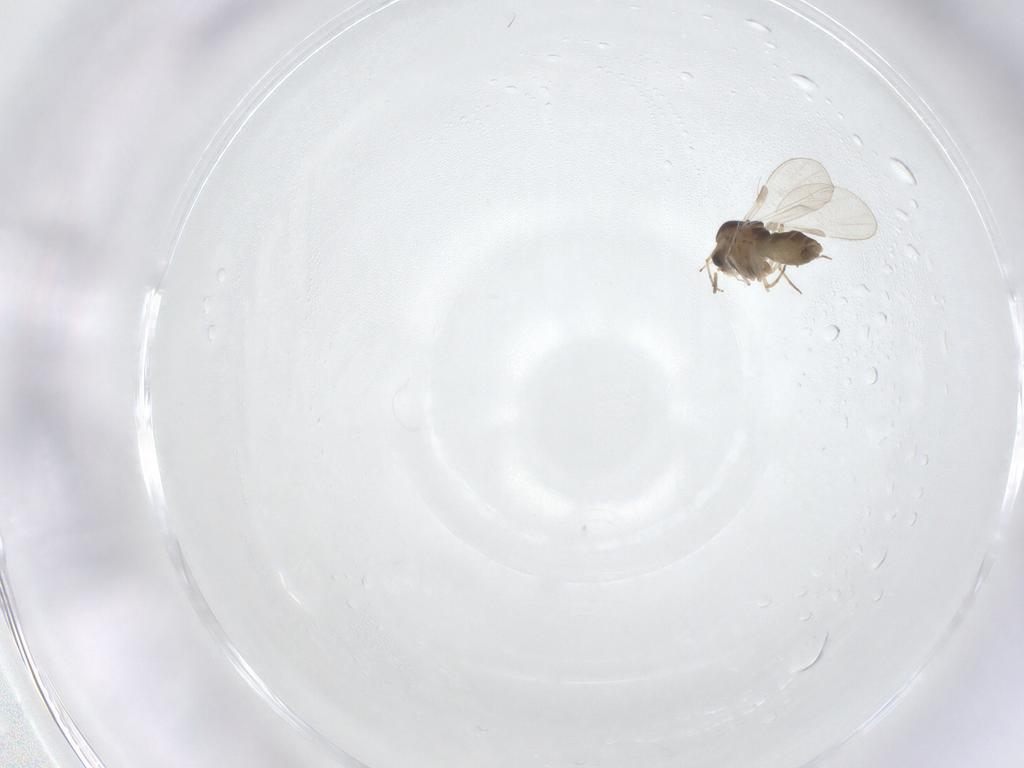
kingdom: Animalia
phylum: Arthropoda
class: Insecta
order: Diptera
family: Chironomidae
